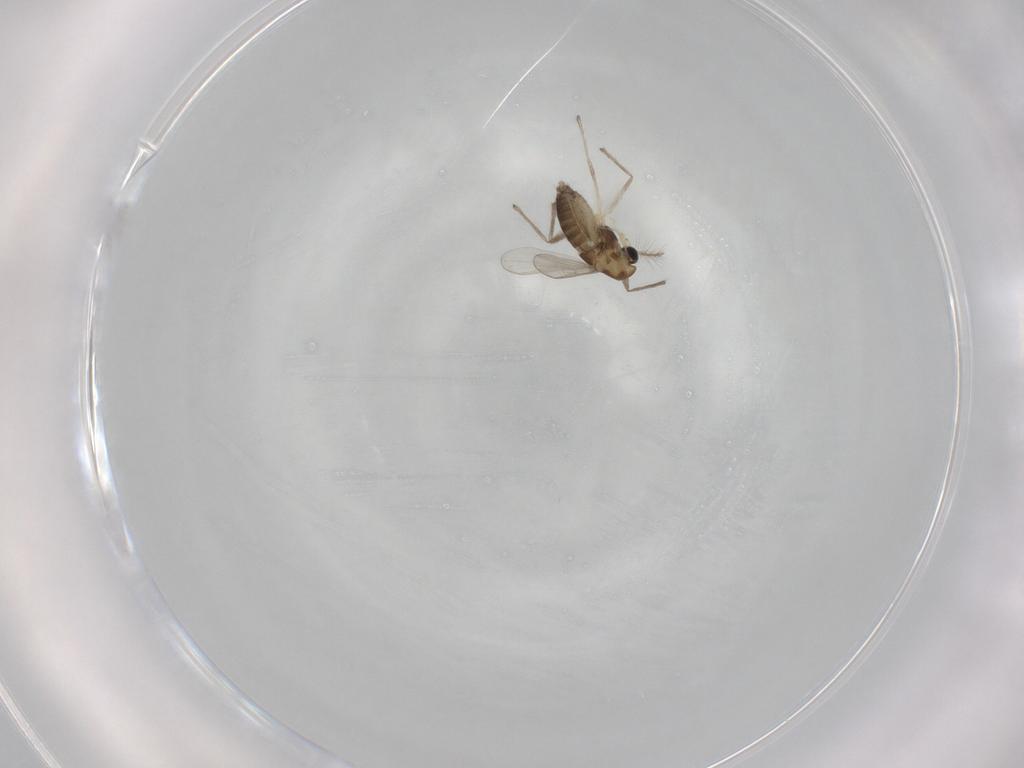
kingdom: Animalia
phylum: Arthropoda
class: Insecta
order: Diptera
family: Chironomidae
